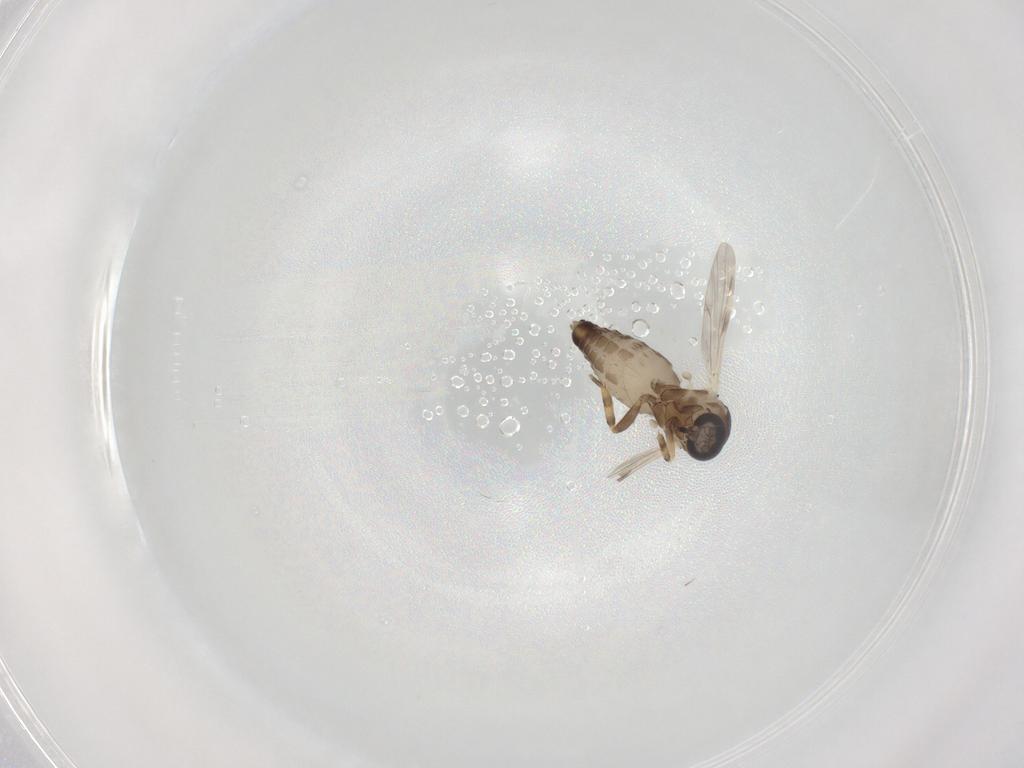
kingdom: Animalia
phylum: Arthropoda
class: Insecta
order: Diptera
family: Ceratopogonidae
